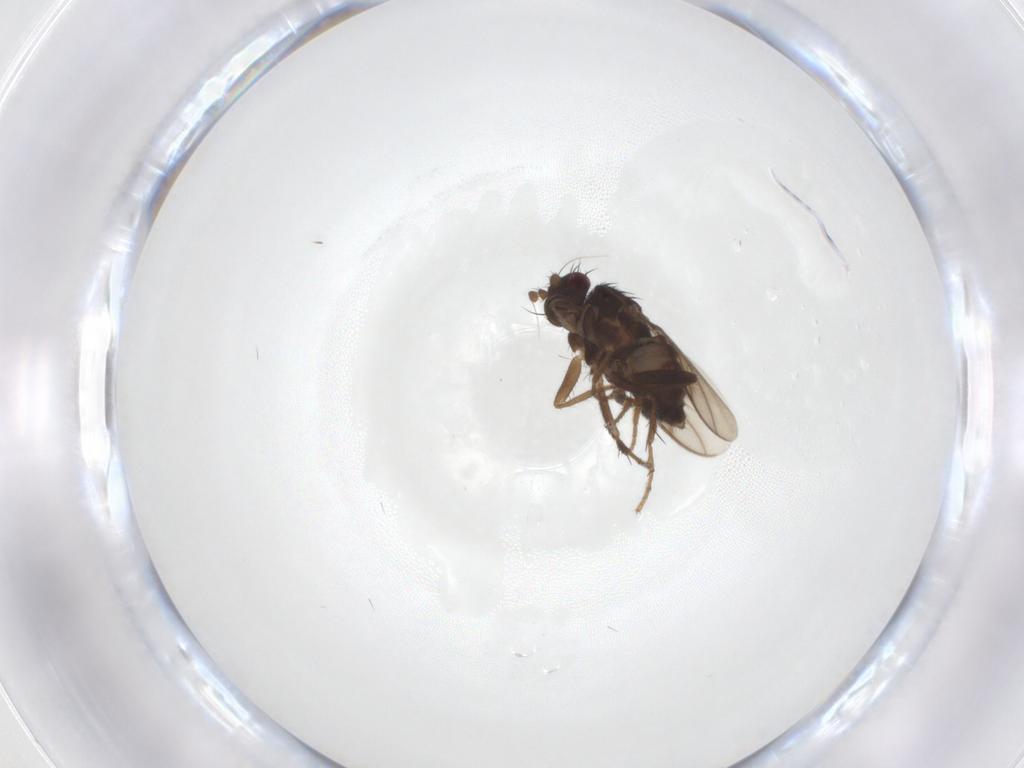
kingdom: Animalia
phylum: Arthropoda
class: Insecta
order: Diptera
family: Sphaeroceridae
